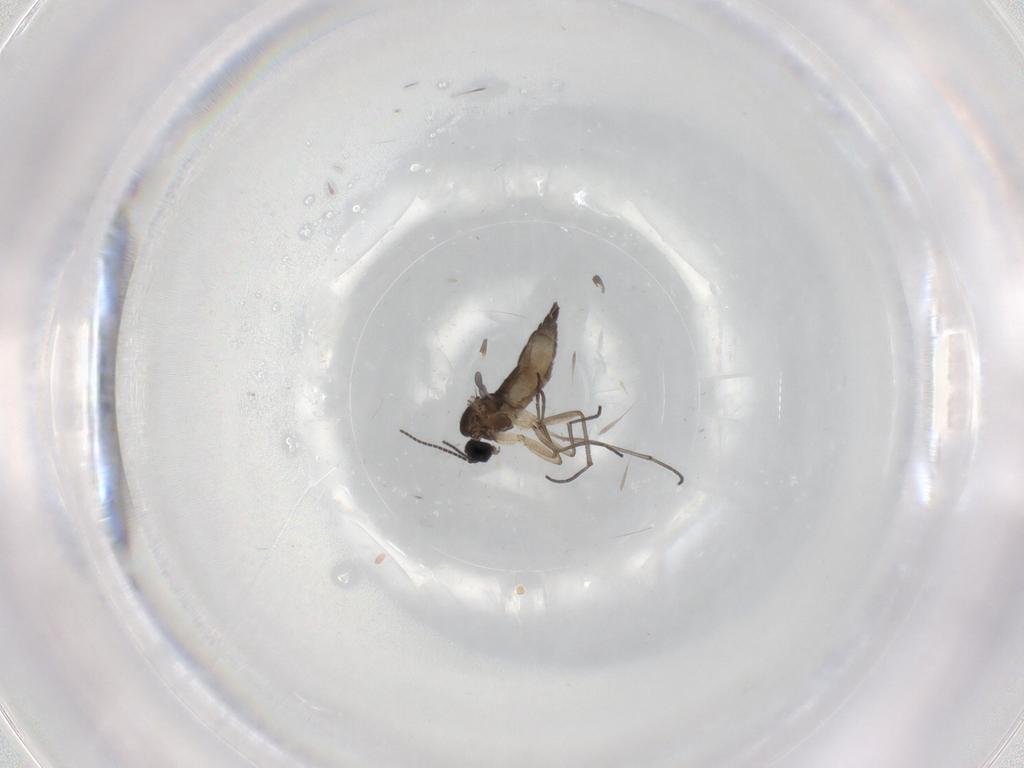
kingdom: Animalia
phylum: Arthropoda
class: Insecta
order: Diptera
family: Sciaridae
